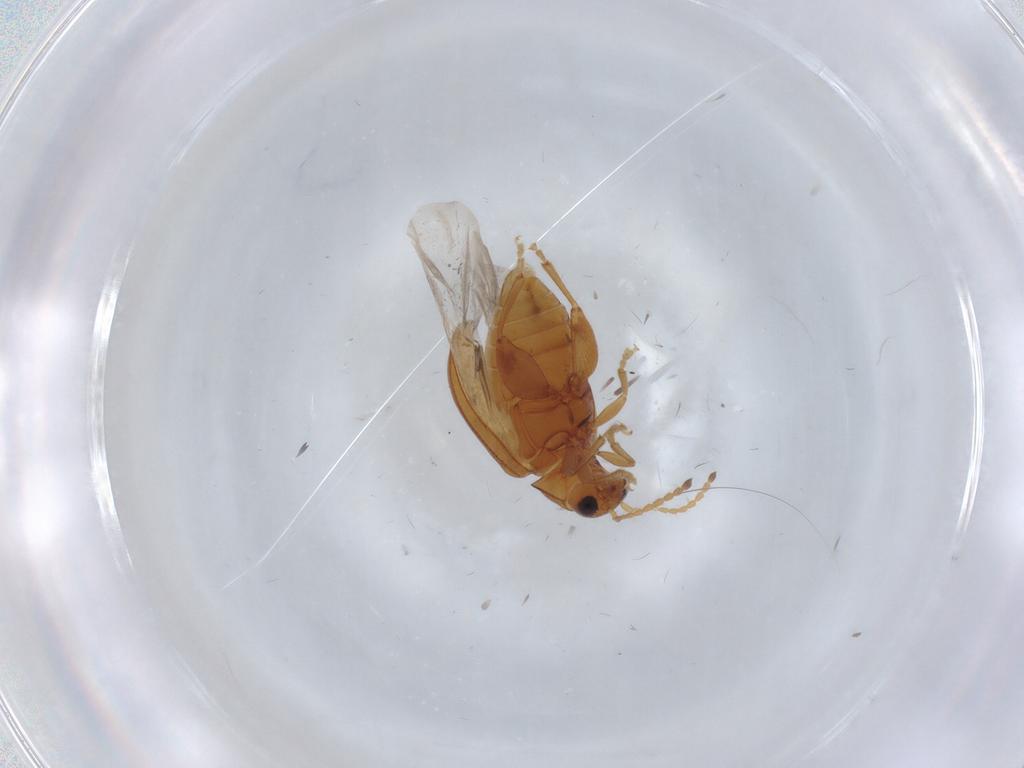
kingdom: Animalia
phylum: Arthropoda
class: Insecta
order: Coleoptera
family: Chrysomelidae
